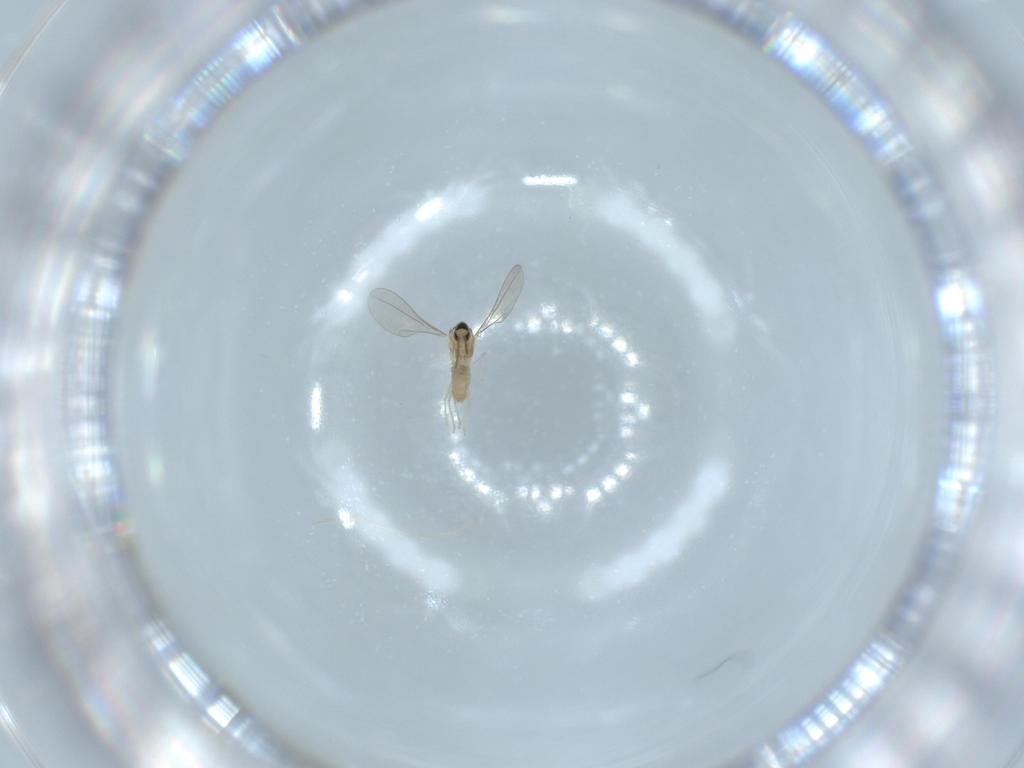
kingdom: Animalia
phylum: Arthropoda
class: Insecta
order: Diptera
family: Cecidomyiidae
